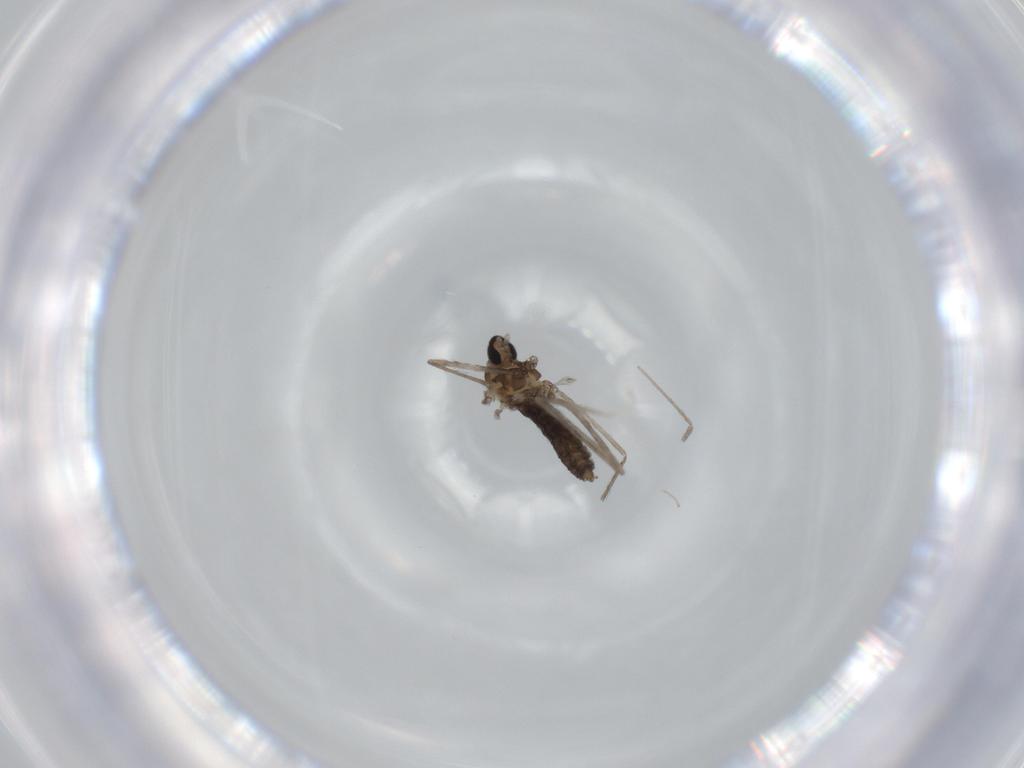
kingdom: Animalia
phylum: Arthropoda
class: Insecta
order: Diptera
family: Cecidomyiidae
